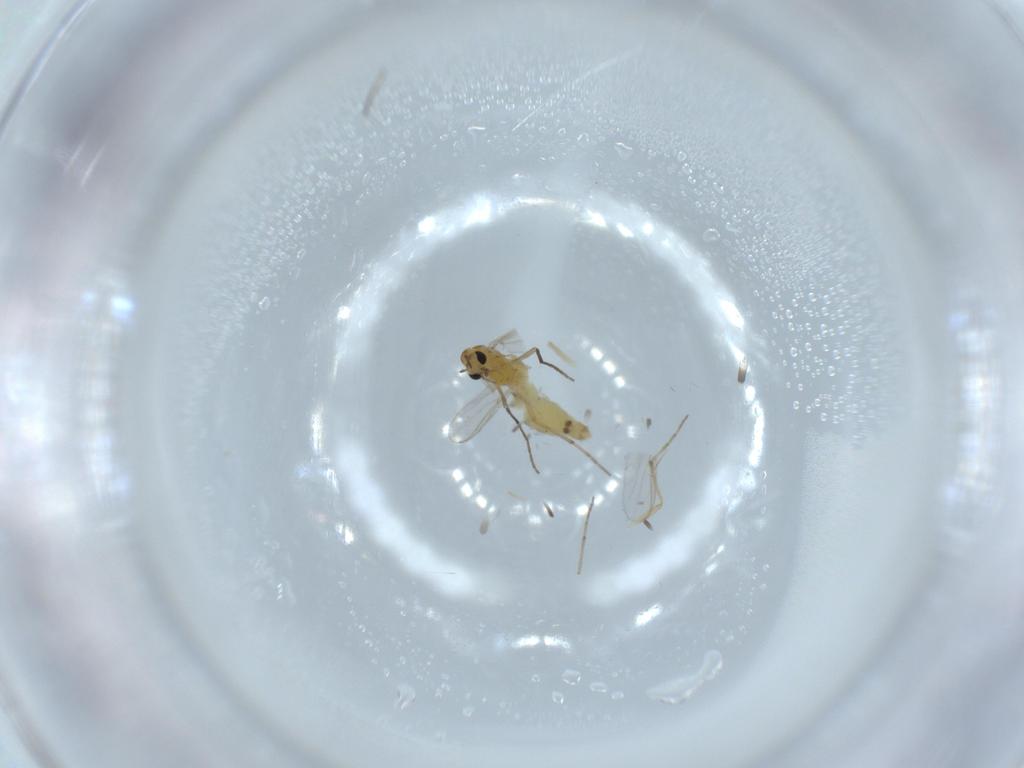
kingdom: Animalia
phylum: Arthropoda
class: Insecta
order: Diptera
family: Chironomidae
